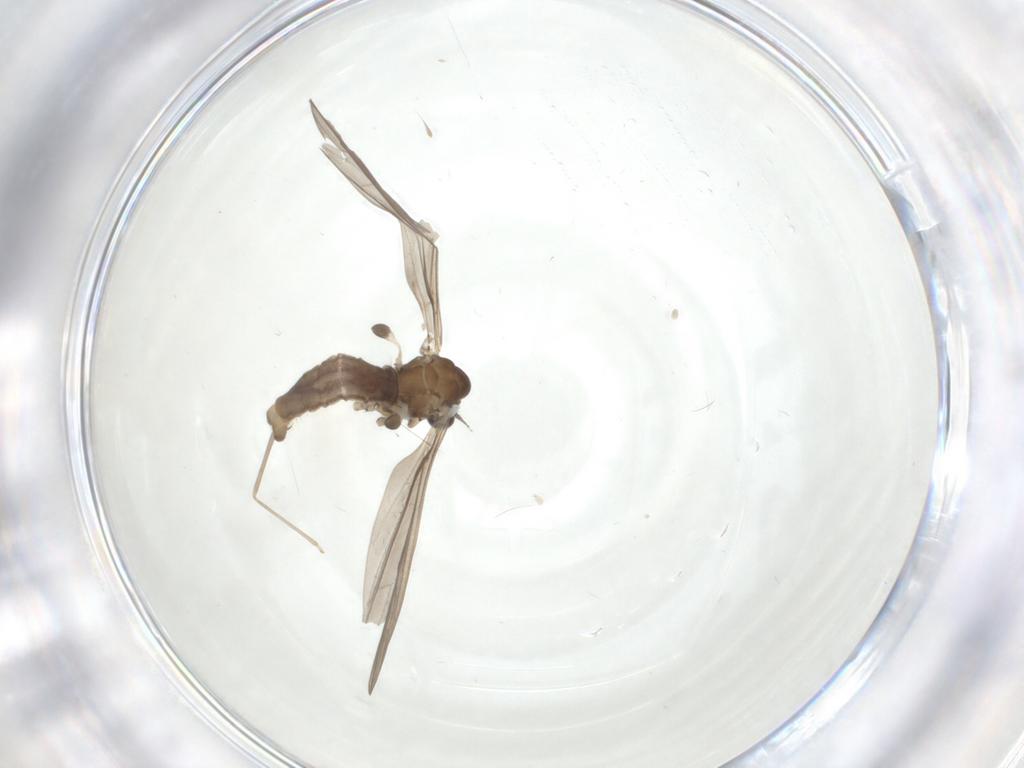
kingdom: Animalia
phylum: Arthropoda
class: Insecta
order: Diptera
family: Limoniidae
